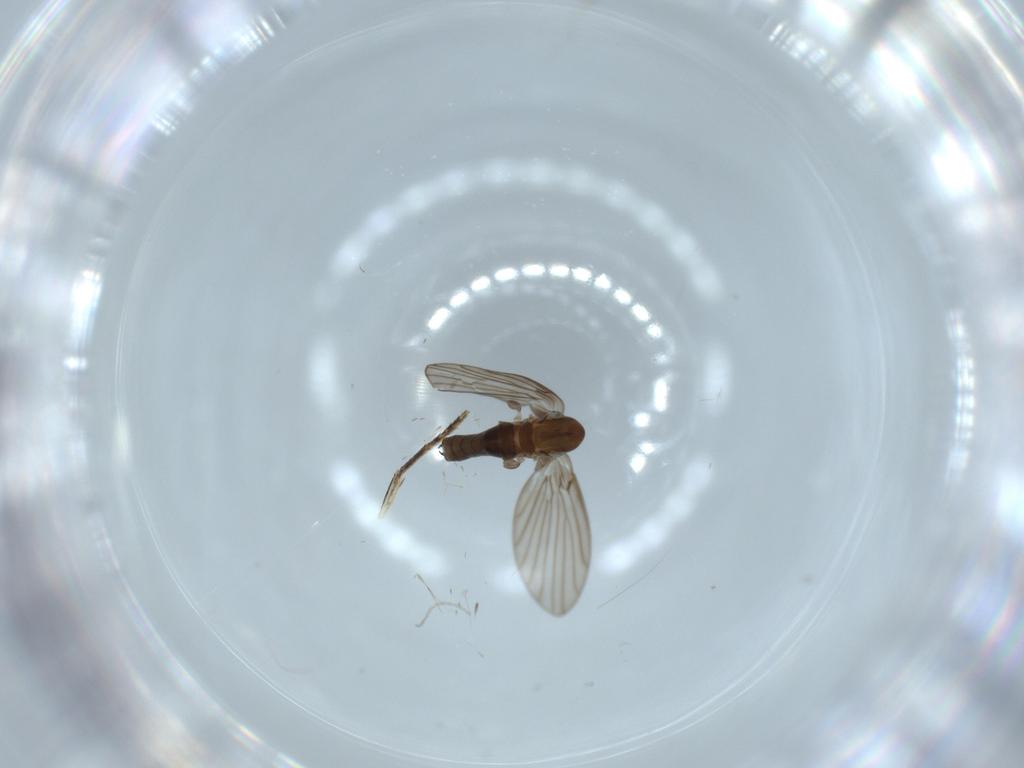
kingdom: Animalia
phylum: Arthropoda
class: Insecta
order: Diptera
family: Psychodidae
